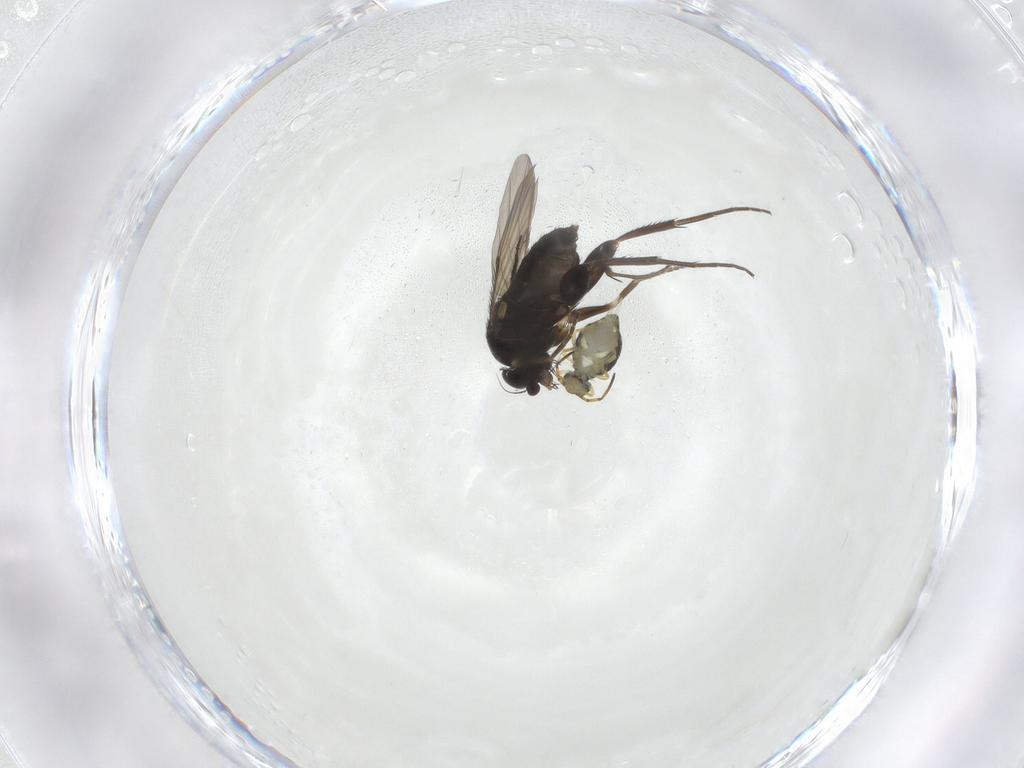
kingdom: Animalia
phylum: Arthropoda
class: Insecta
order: Diptera
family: Phoridae
